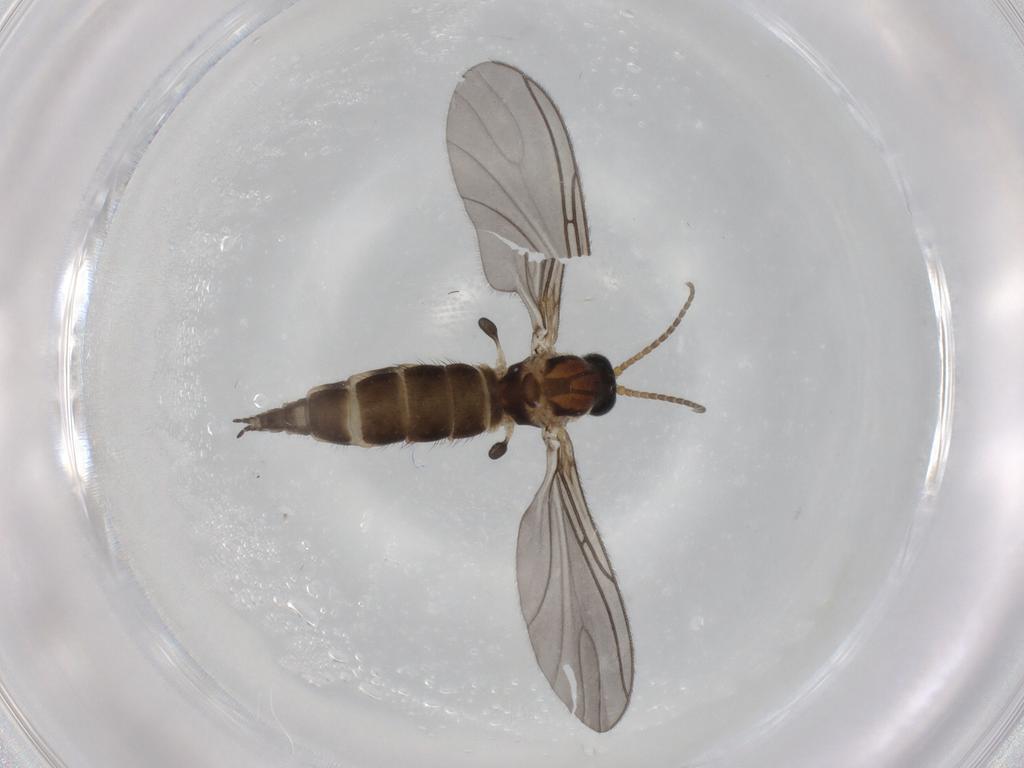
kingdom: Animalia
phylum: Arthropoda
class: Insecta
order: Diptera
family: Sciaridae
